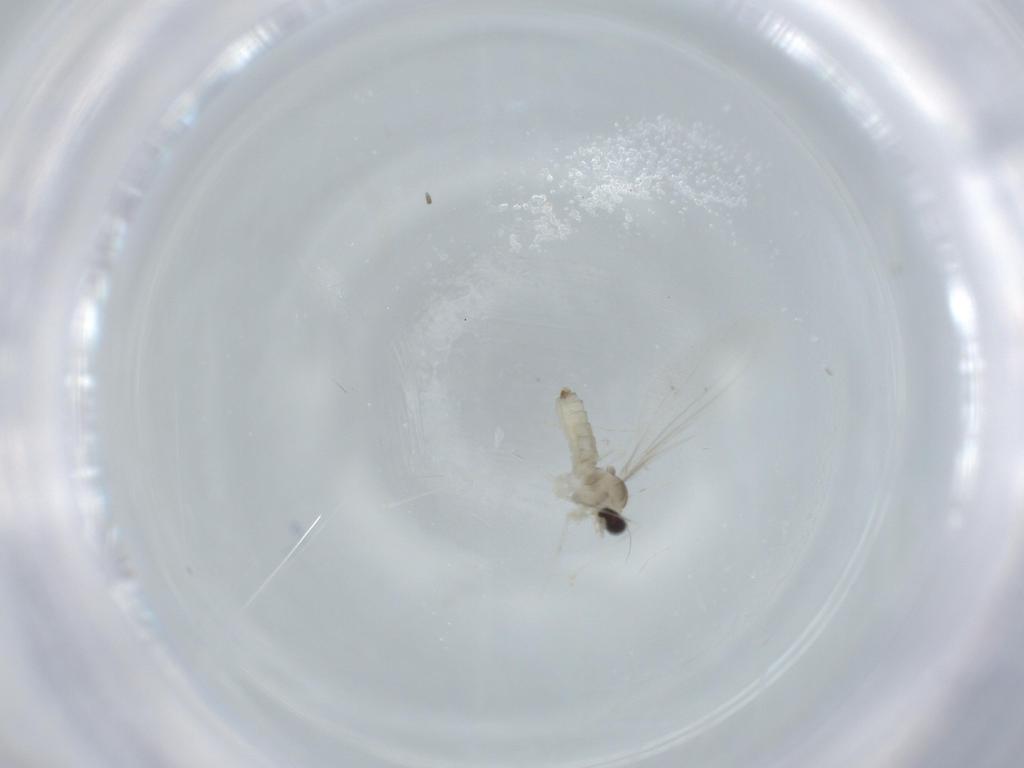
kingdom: Animalia
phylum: Arthropoda
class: Insecta
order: Diptera
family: Cecidomyiidae
